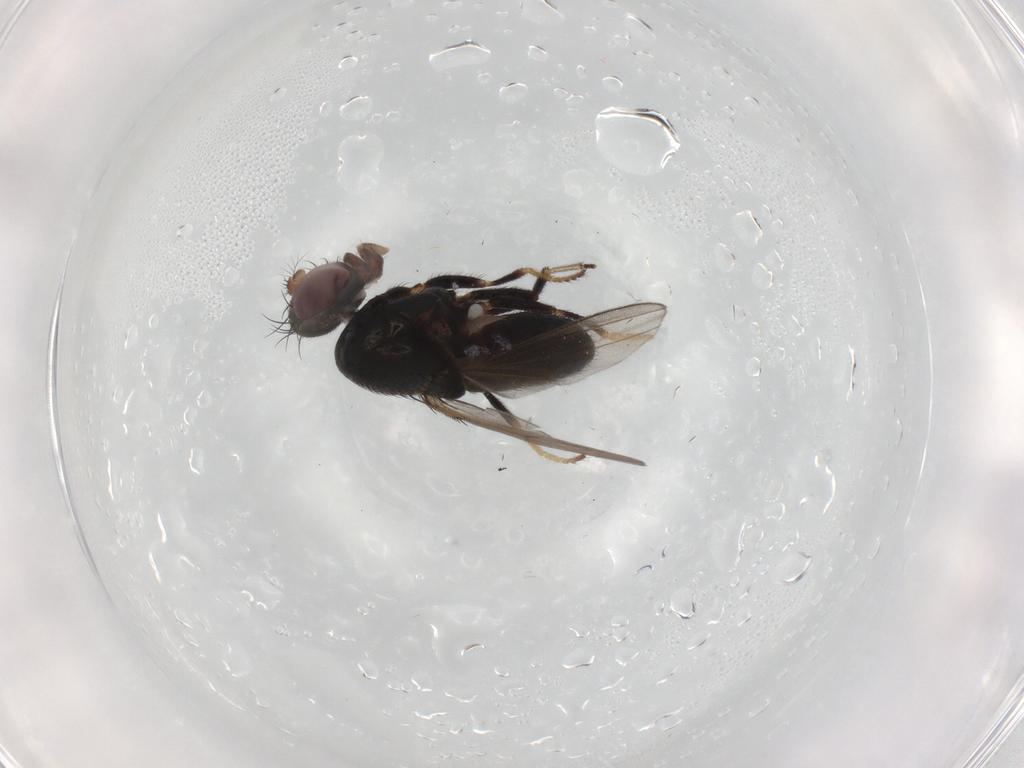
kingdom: Animalia
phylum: Arthropoda
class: Insecta
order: Diptera
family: Ephydridae
